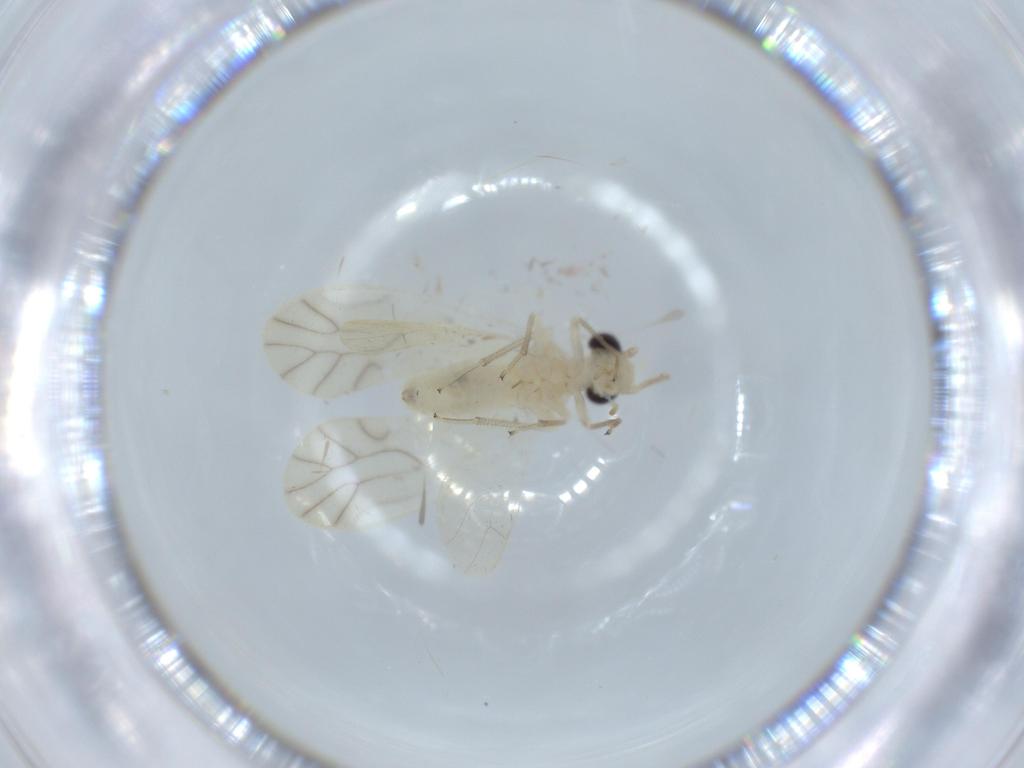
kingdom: Animalia
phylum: Arthropoda
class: Insecta
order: Psocodea
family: Caeciliusidae
